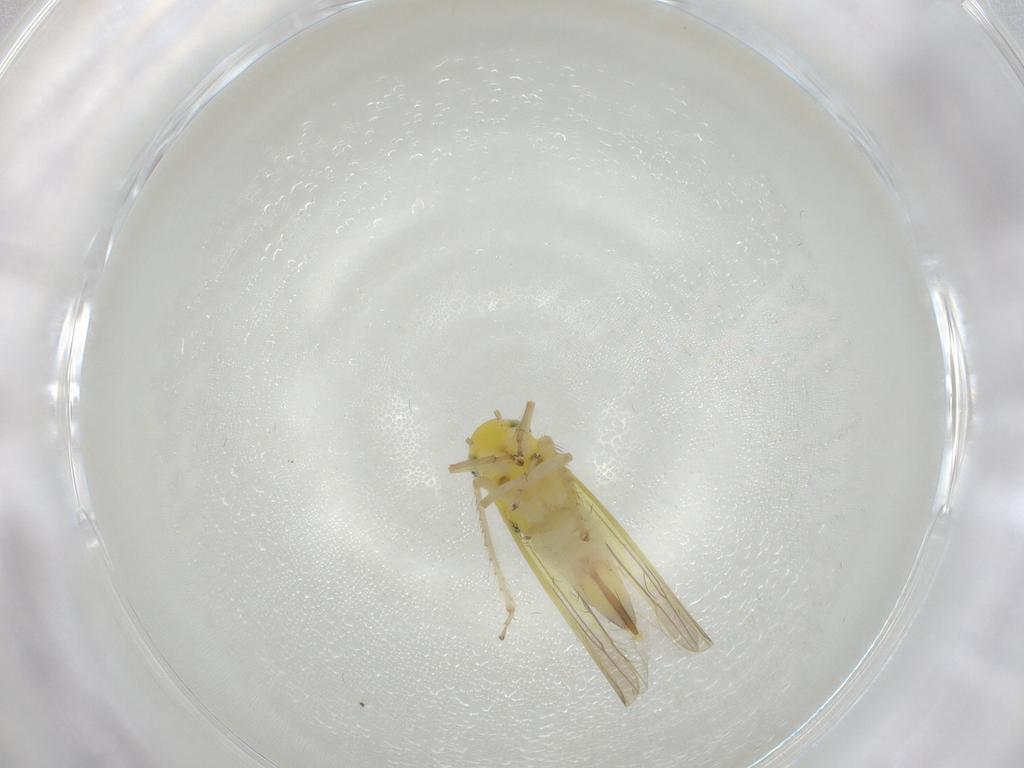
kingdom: Animalia
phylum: Arthropoda
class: Insecta
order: Hemiptera
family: Cicadellidae
